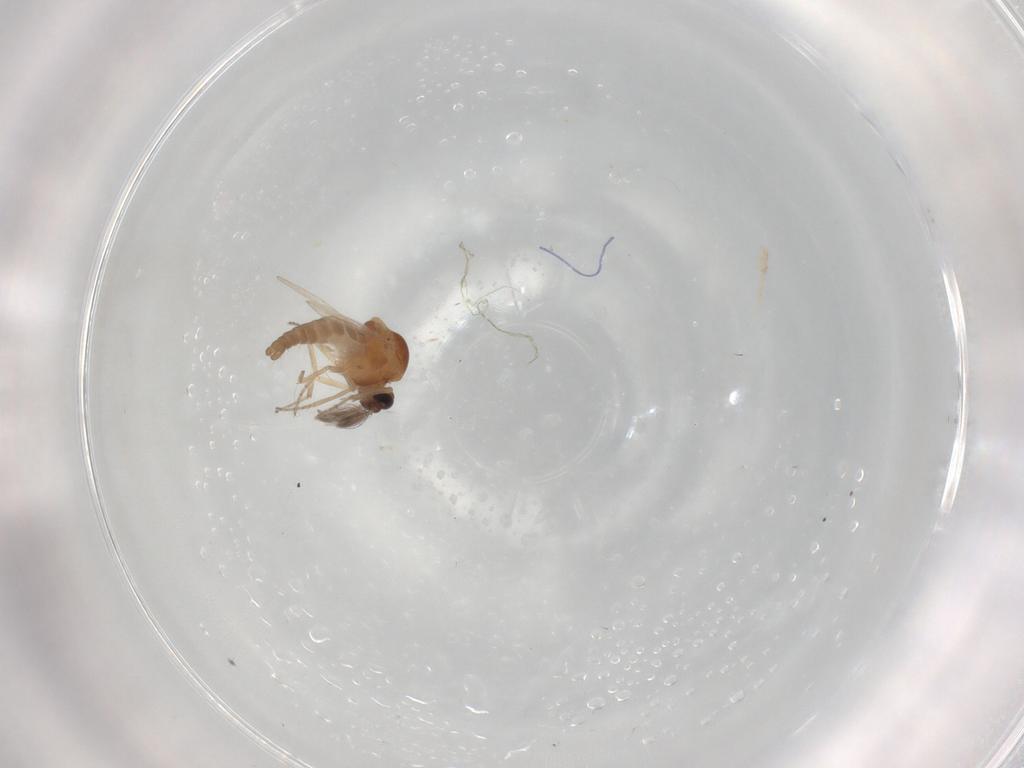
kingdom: Animalia
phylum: Arthropoda
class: Insecta
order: Diptera
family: Ceratopogonidae
